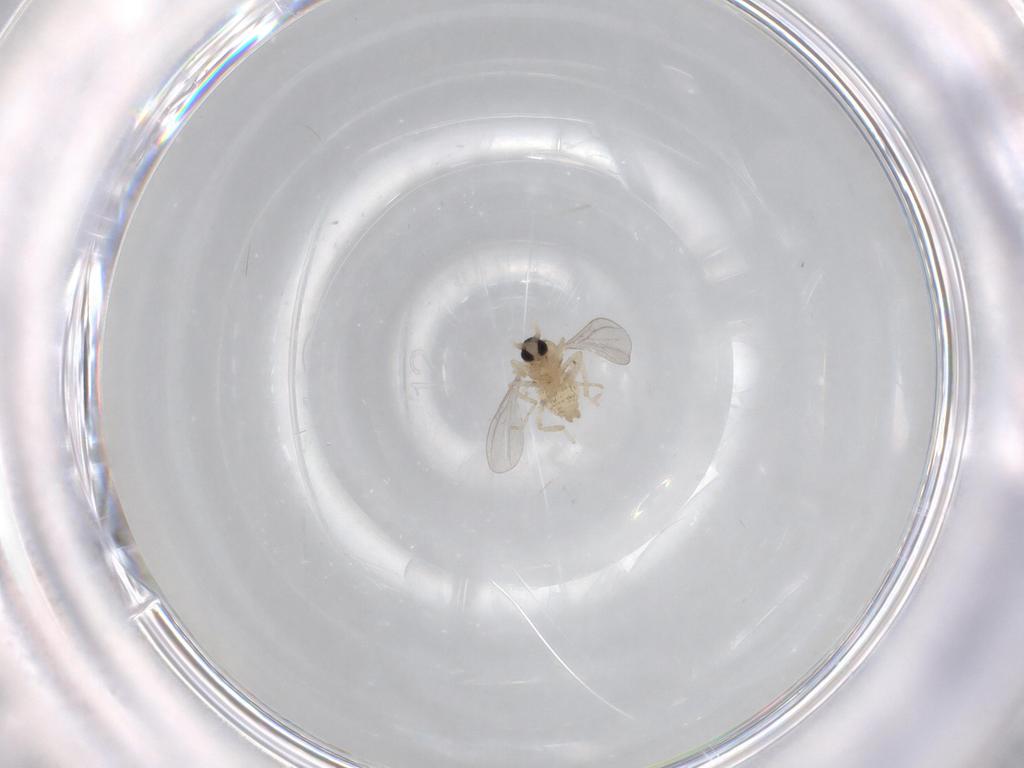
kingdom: Animalia
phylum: Arthropoda
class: Insecta
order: Diptera
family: Cecidomyiidae
